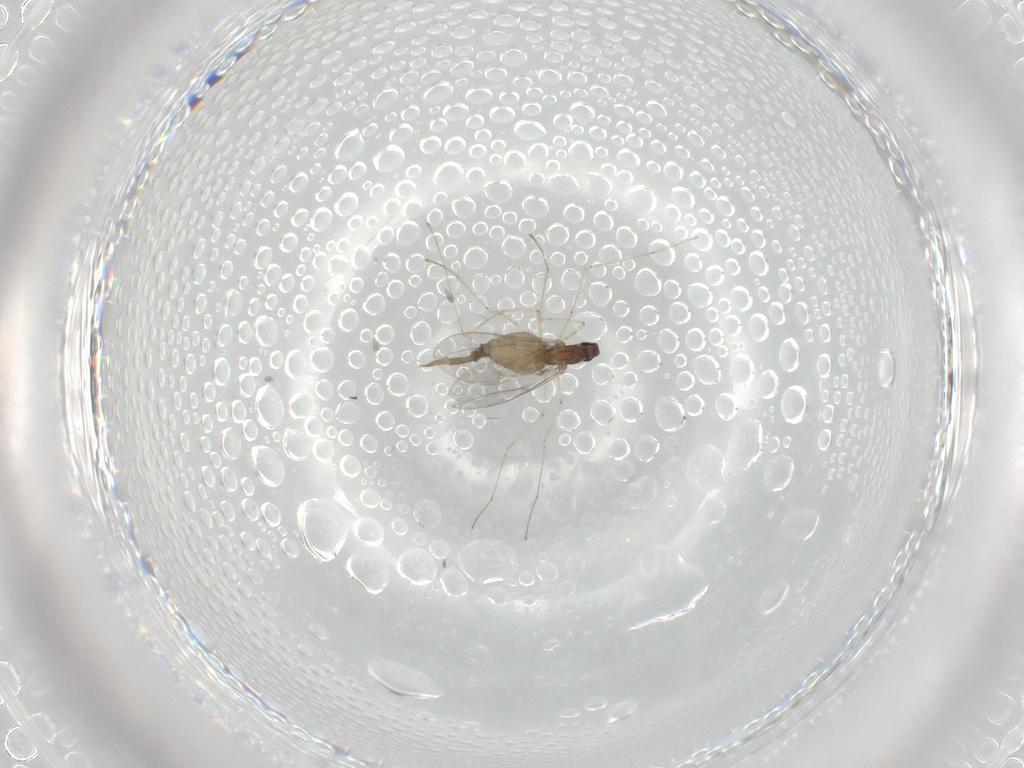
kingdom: Animalia
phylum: Arthropoda
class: Insecta
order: Diptera
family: Cecidomyiidae
